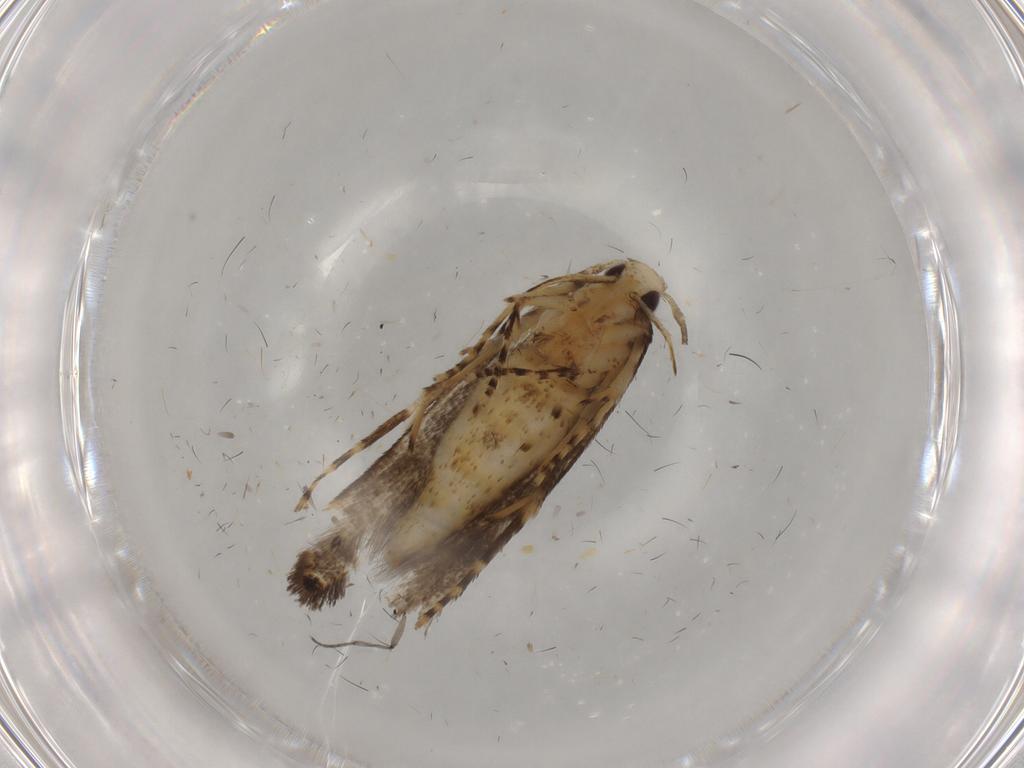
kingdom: Animalia
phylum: Arthropoda
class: Insecta
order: Lepidoptera
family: Cosmopterigidae
